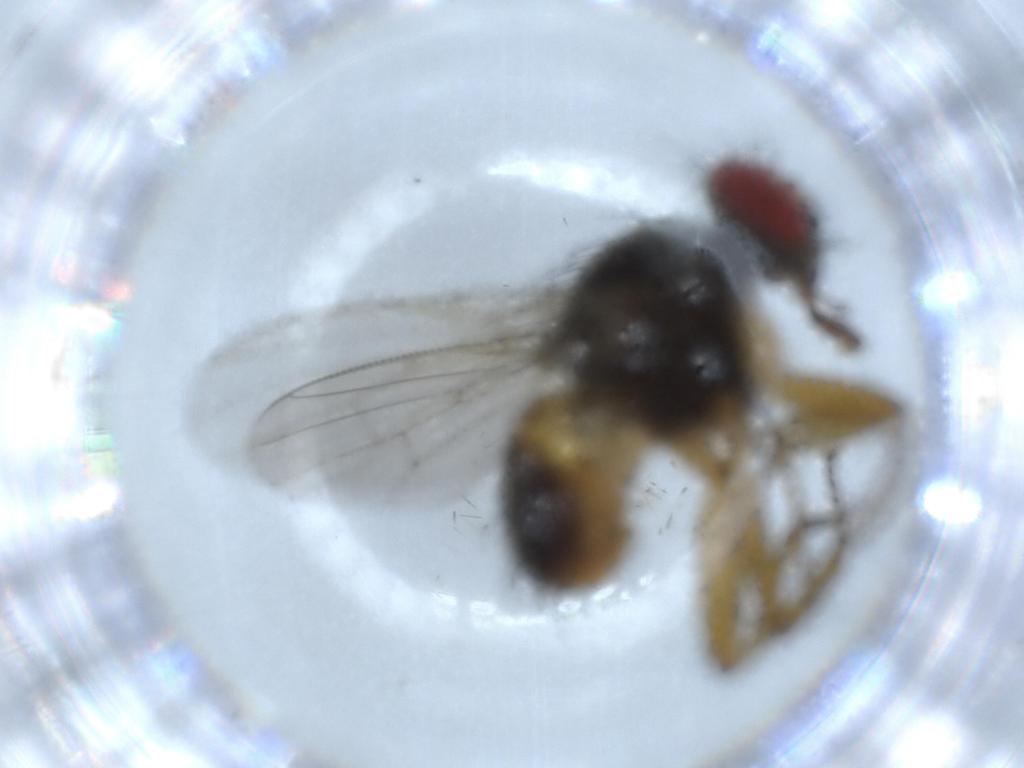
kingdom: Animalia
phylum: Arthropoda
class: Insecta
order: Diptera
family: Muscidae
